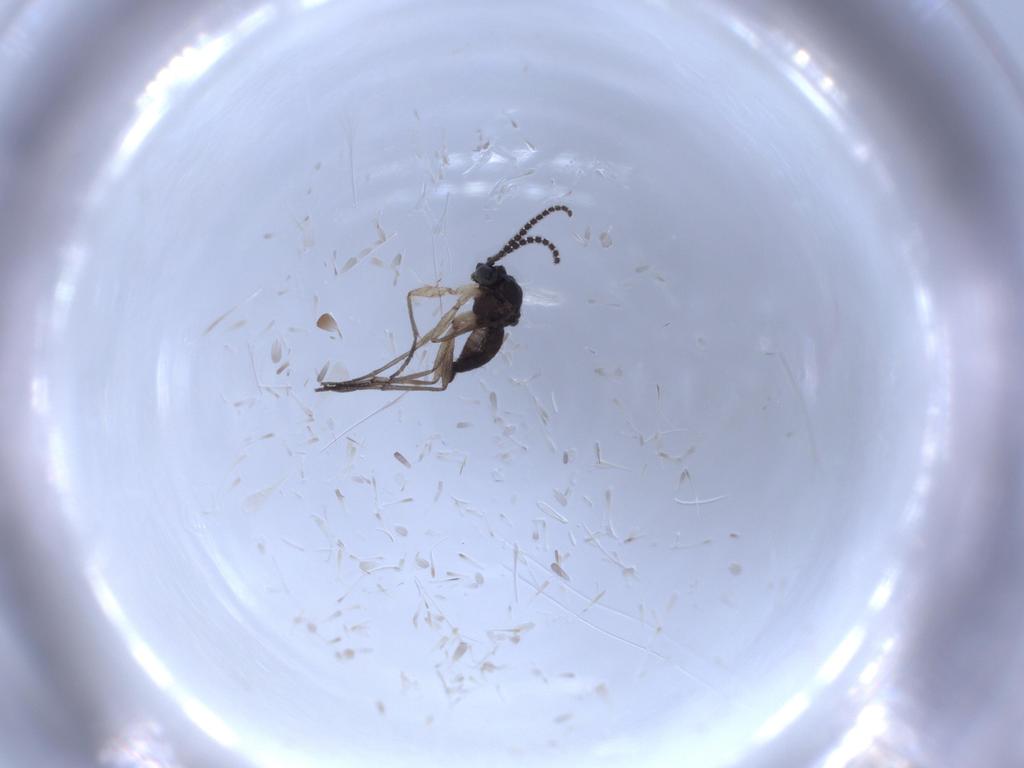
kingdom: Animalia
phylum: Arthropoda
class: Insecta
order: Diptera
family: Sciaridae
